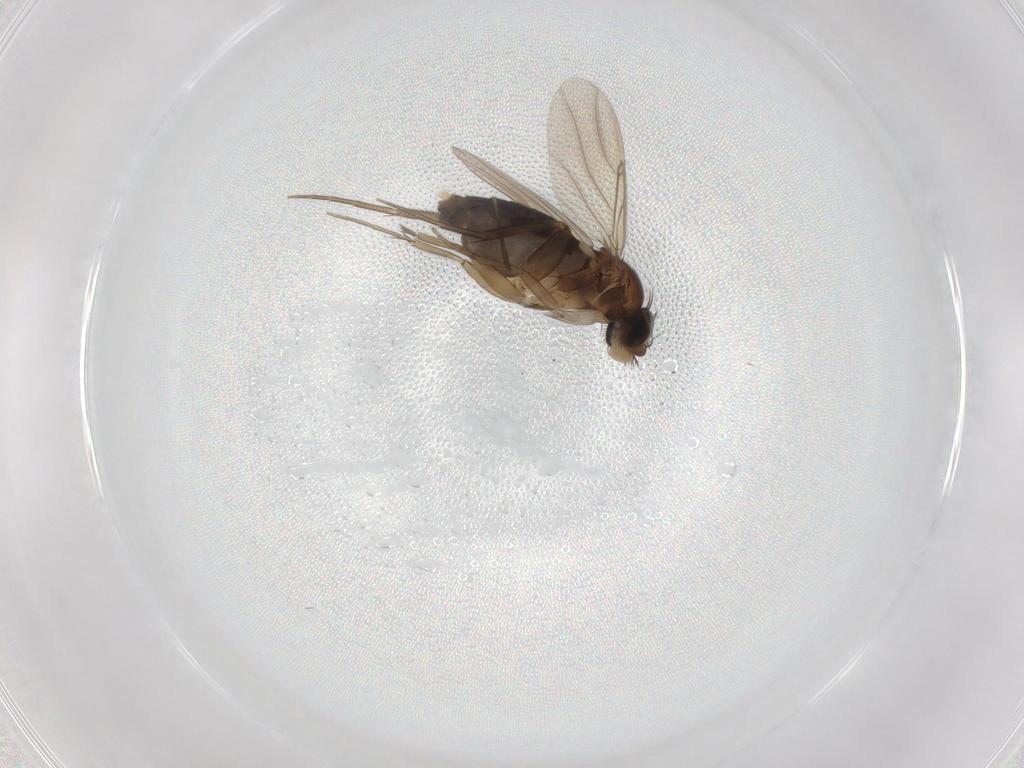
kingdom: Animalia
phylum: Arthropoda
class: Insecta
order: Diptera
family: Phoridae
